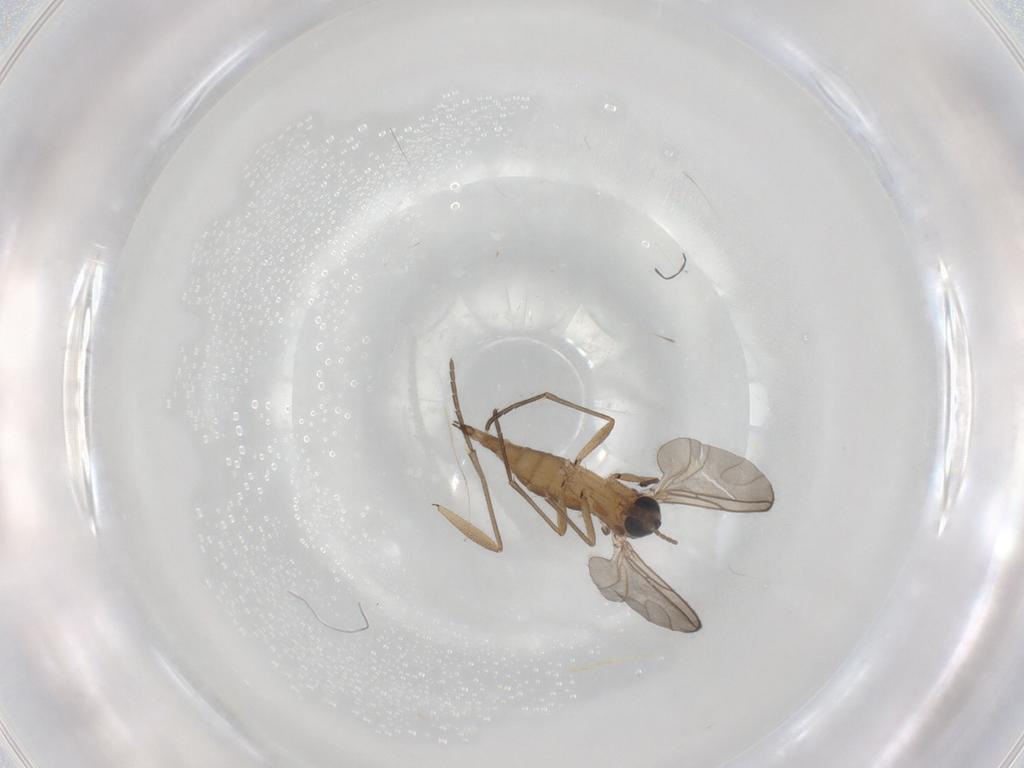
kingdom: Animalia
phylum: Arthropoda
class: Insecta
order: Diptera
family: Sciaridae
